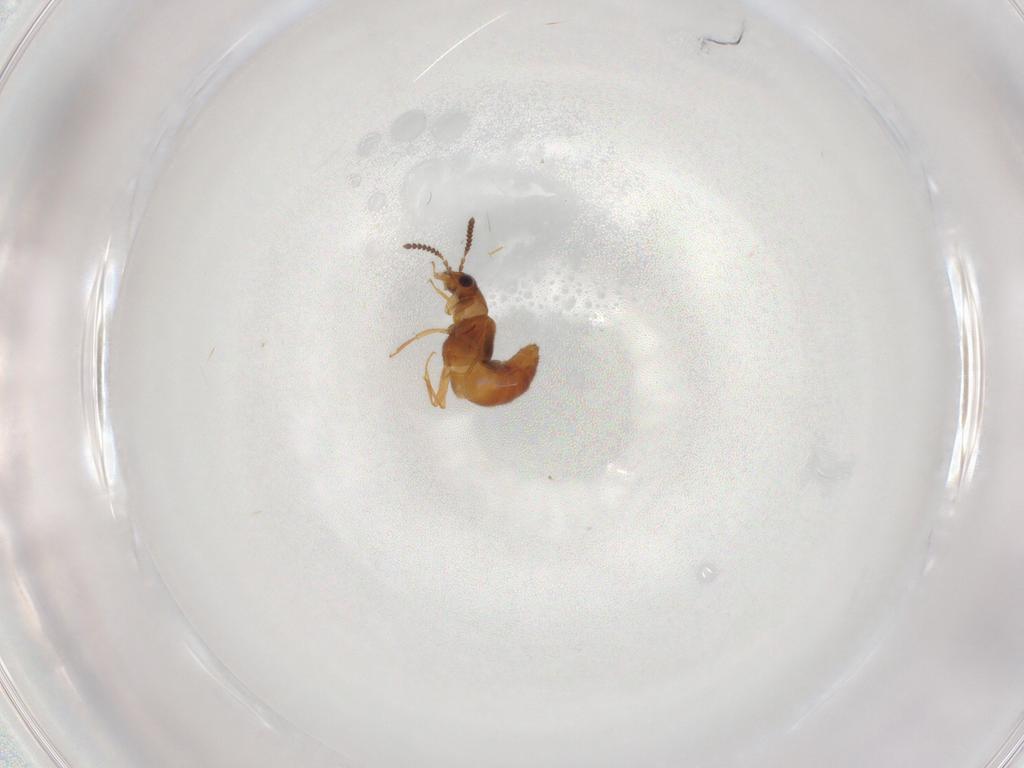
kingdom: Animalia
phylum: Arthropoda
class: Insecta
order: Coleoptera
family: Staphylinidae
